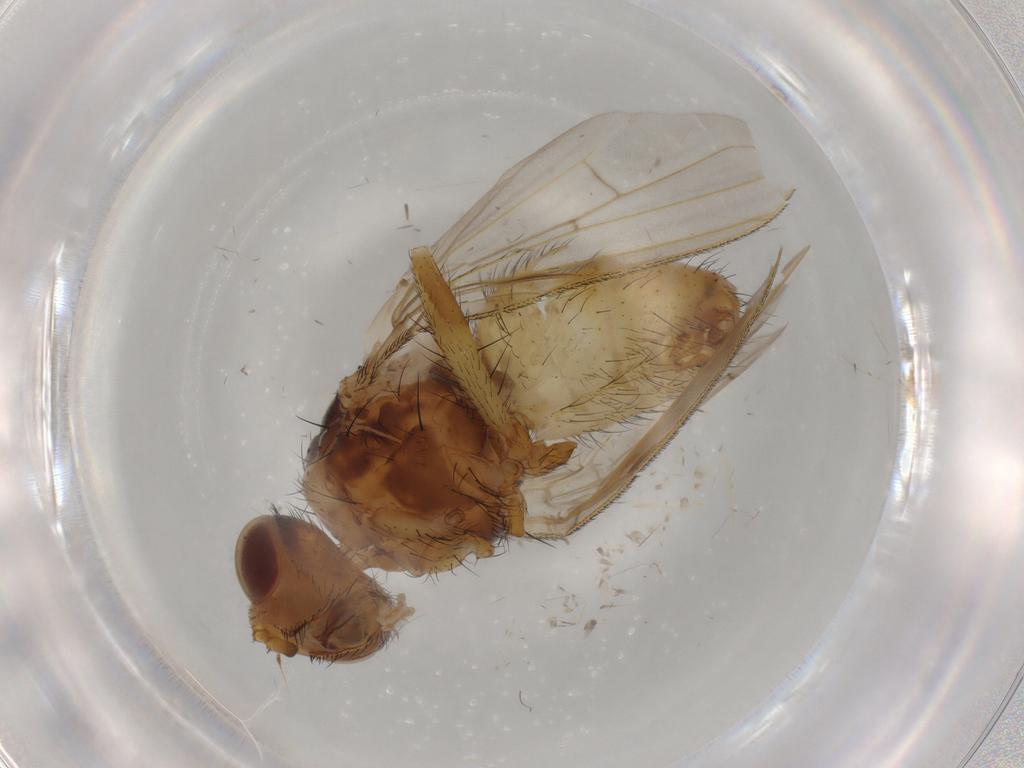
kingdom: Animalia
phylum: Arthropoda
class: Insecta
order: Diptera
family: Tachinidae
